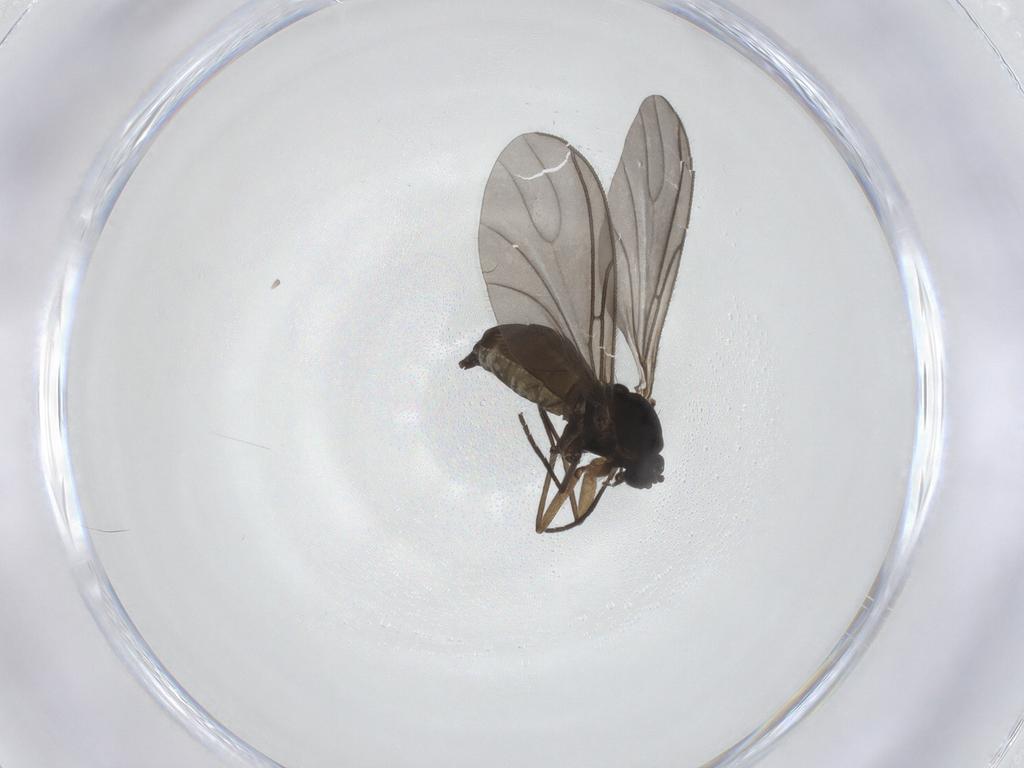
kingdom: Animalia
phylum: Arthropoda
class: Insecta
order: Diptera
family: Sciaridae
